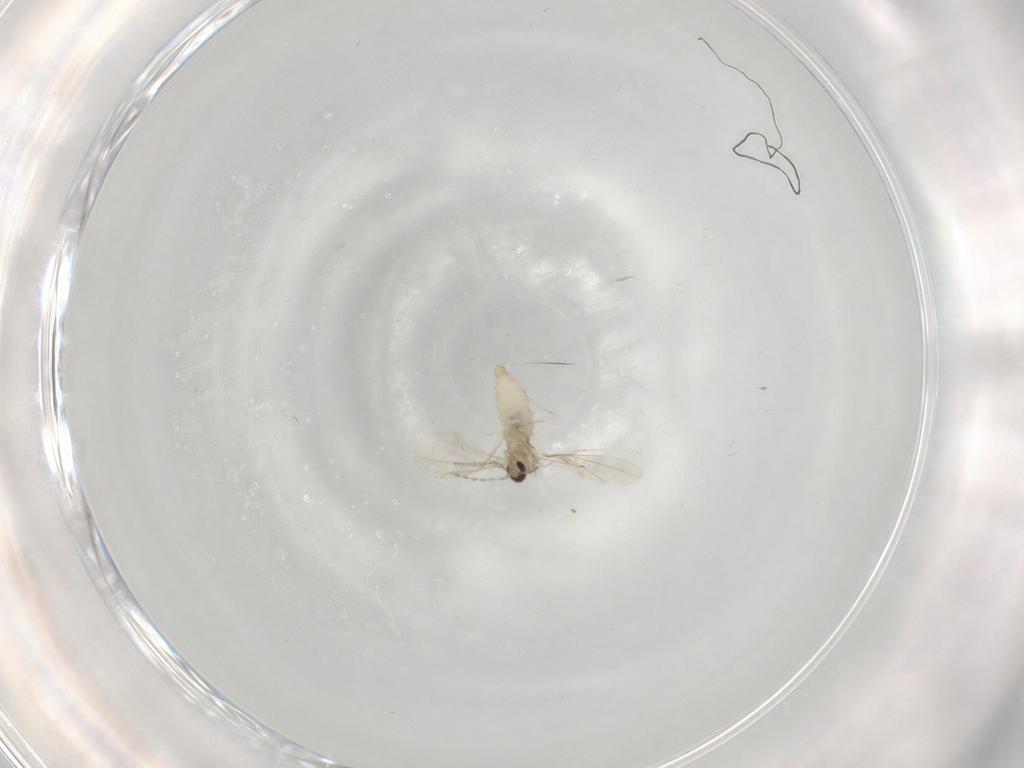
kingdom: Animalia
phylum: Arthropoda
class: Insecta
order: Diptera
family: Cecidomyiidae
